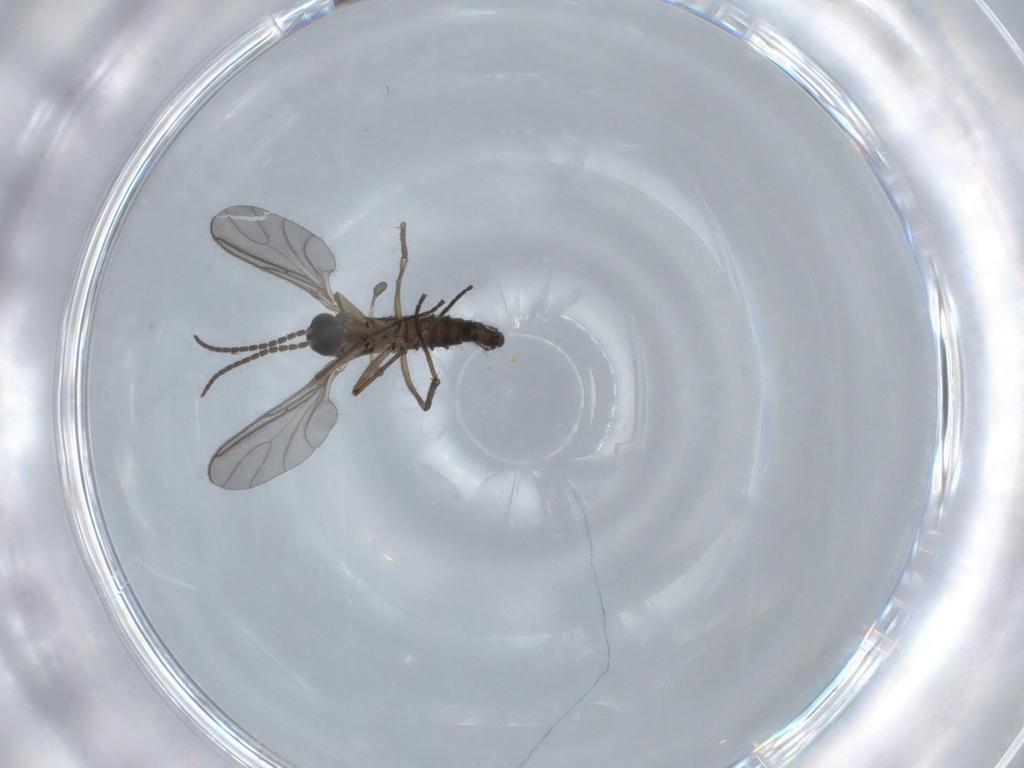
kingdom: Animalia
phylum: Arthropoda
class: Insecta
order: Diptera
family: Sciaridae
